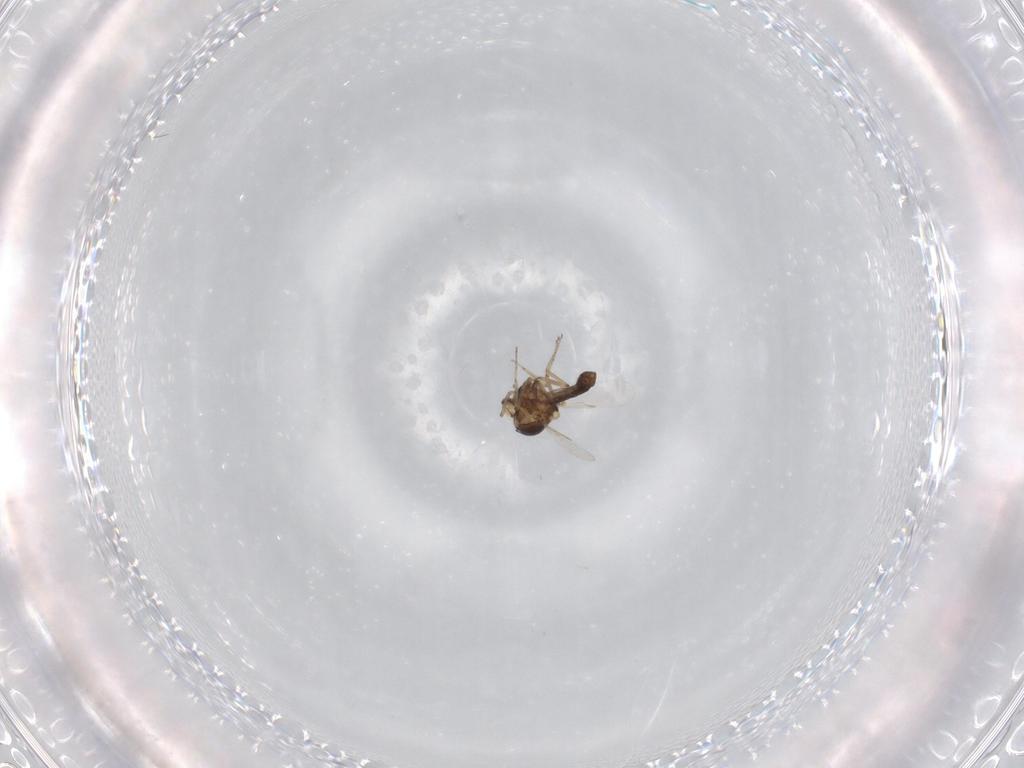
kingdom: Animalia
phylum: Arthropoda
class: Insecta
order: Diptera
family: Ceratopogonidae
